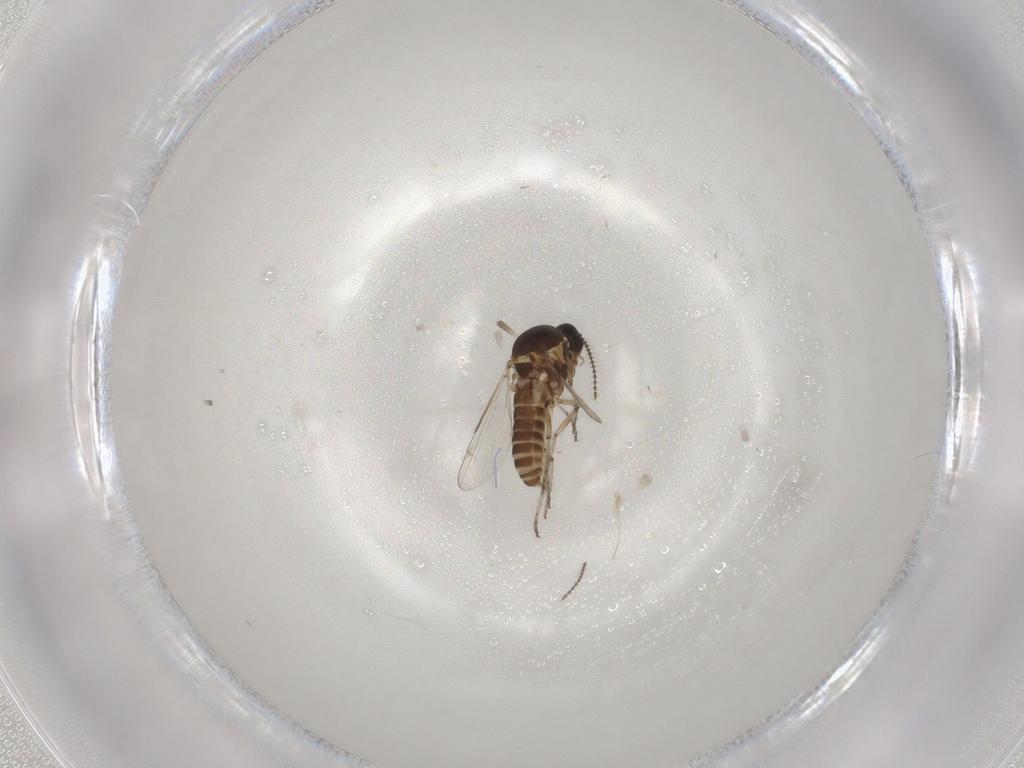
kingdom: Animalia
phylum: Arthropoda
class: Insecta
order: Diptera
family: Ceratopogonidae
